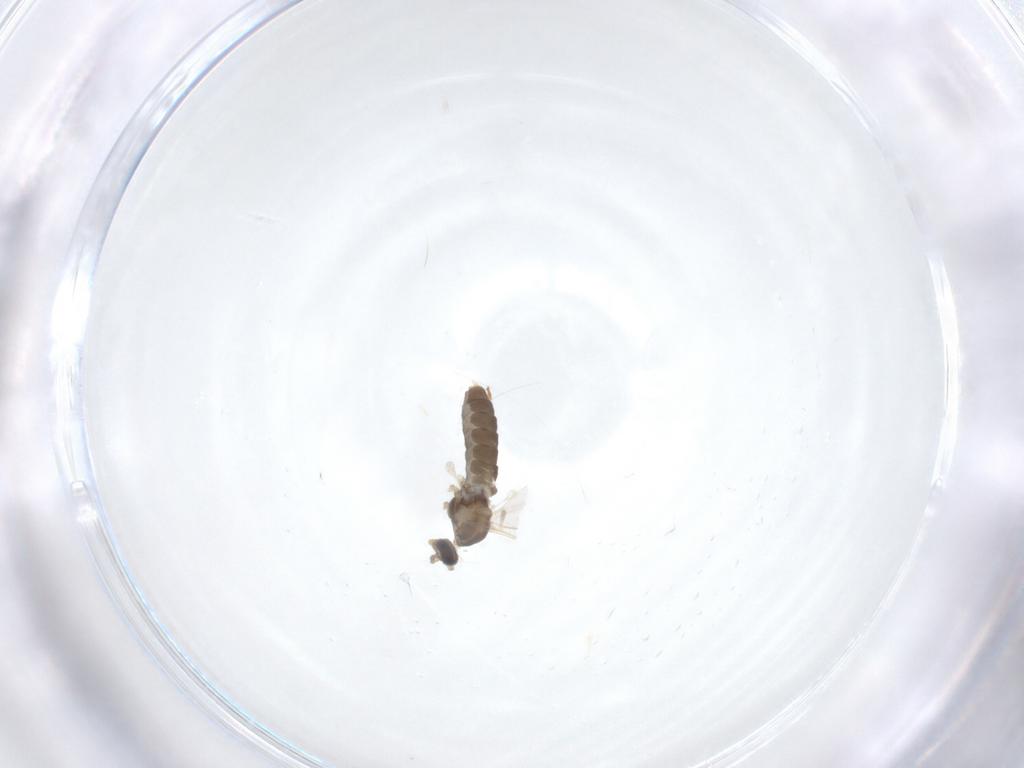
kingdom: Animalia
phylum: Arthropoda
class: Insecta
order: Diptera
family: Cecidomyiidae
